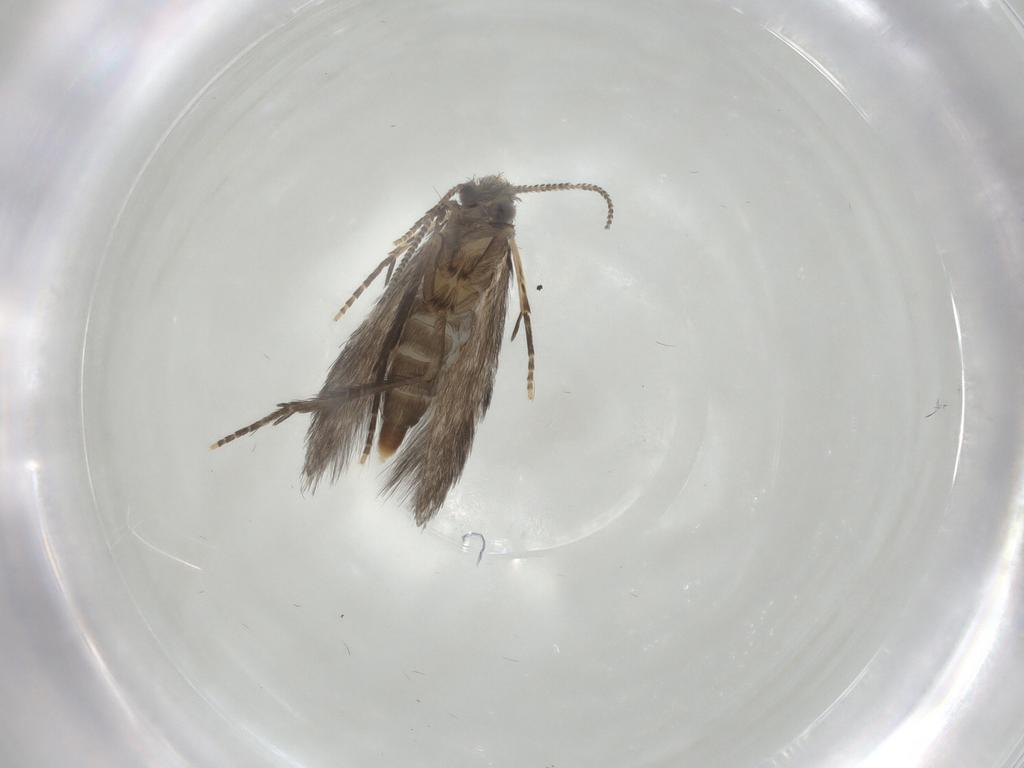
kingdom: Animalia
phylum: Arthropoda
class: Insecta
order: Trichoptera
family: Hydroptilidae
